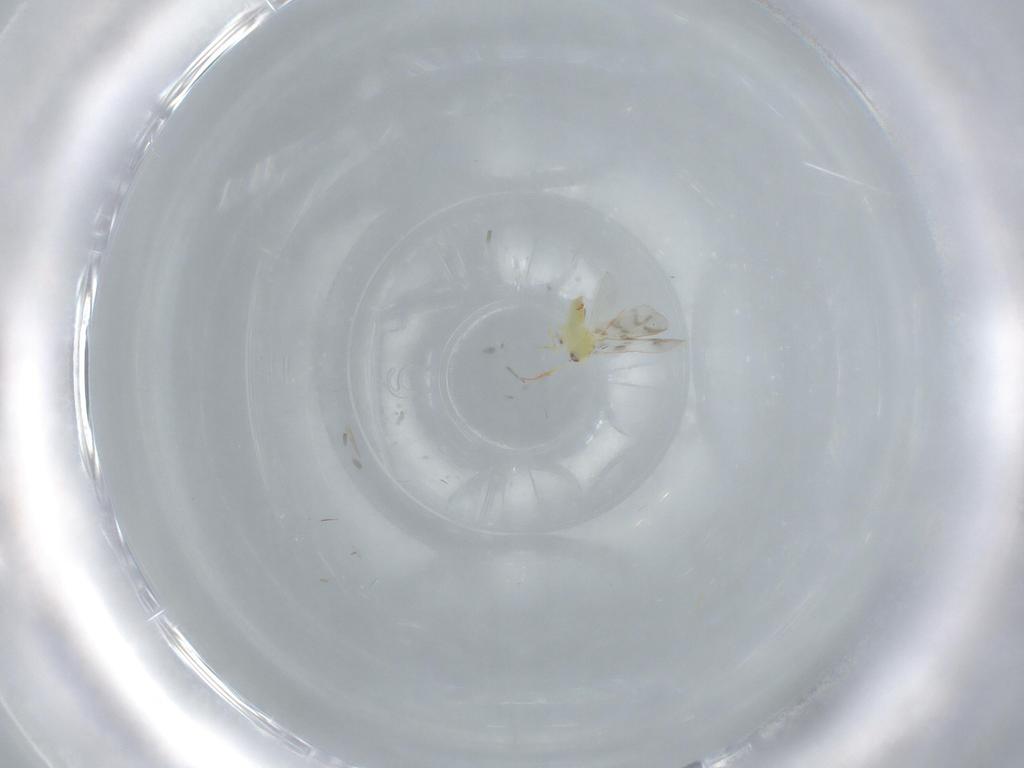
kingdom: Animalia
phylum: Arthropoda
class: Insecta
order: Hemiptera
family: Aleyrodidae
